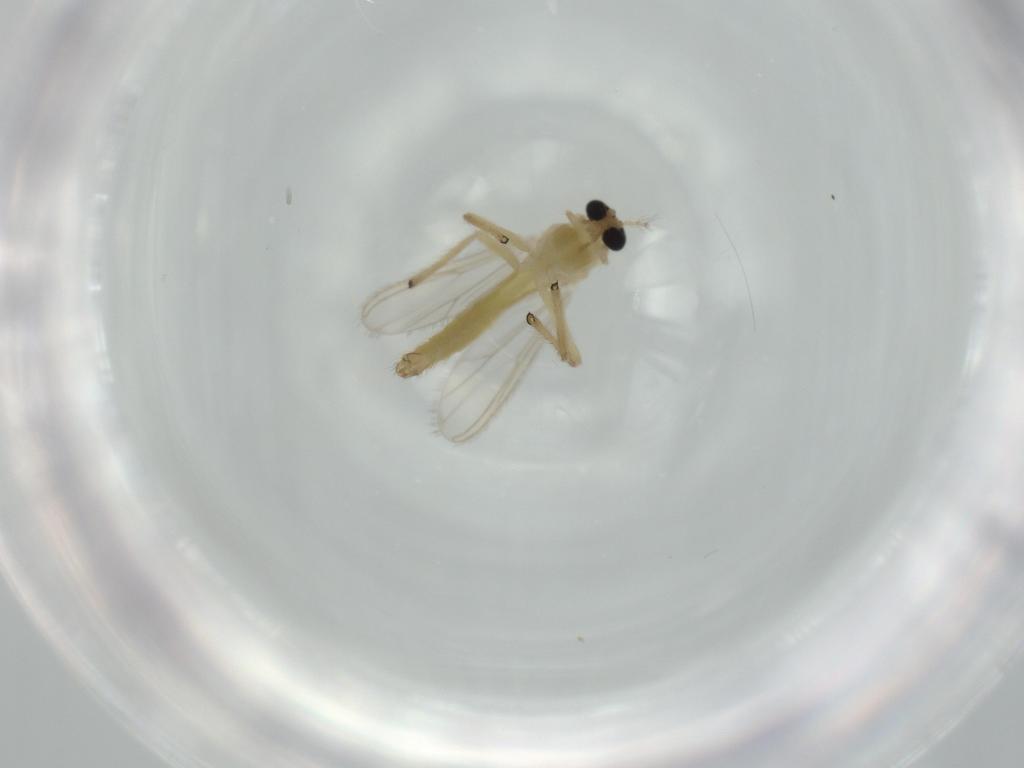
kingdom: Animalia
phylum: Arthropoda
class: Insecta
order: Diptera
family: Chironomidae
